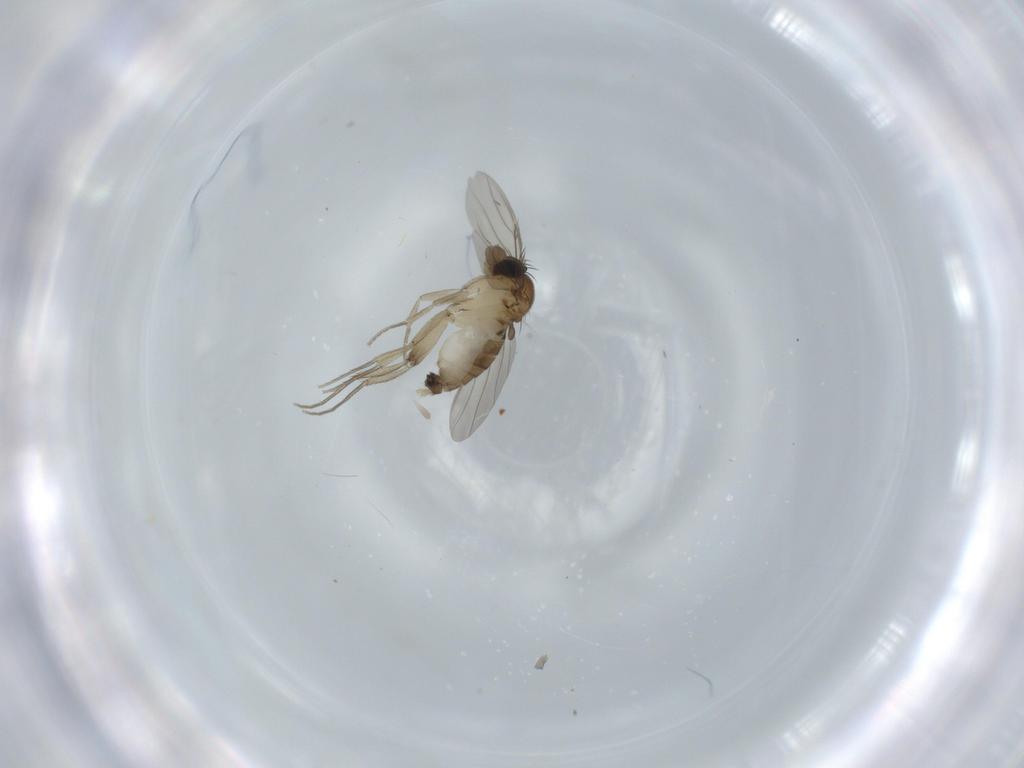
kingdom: Animalia
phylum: Arthropoda
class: Insecta
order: Diptera
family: Phoridae
